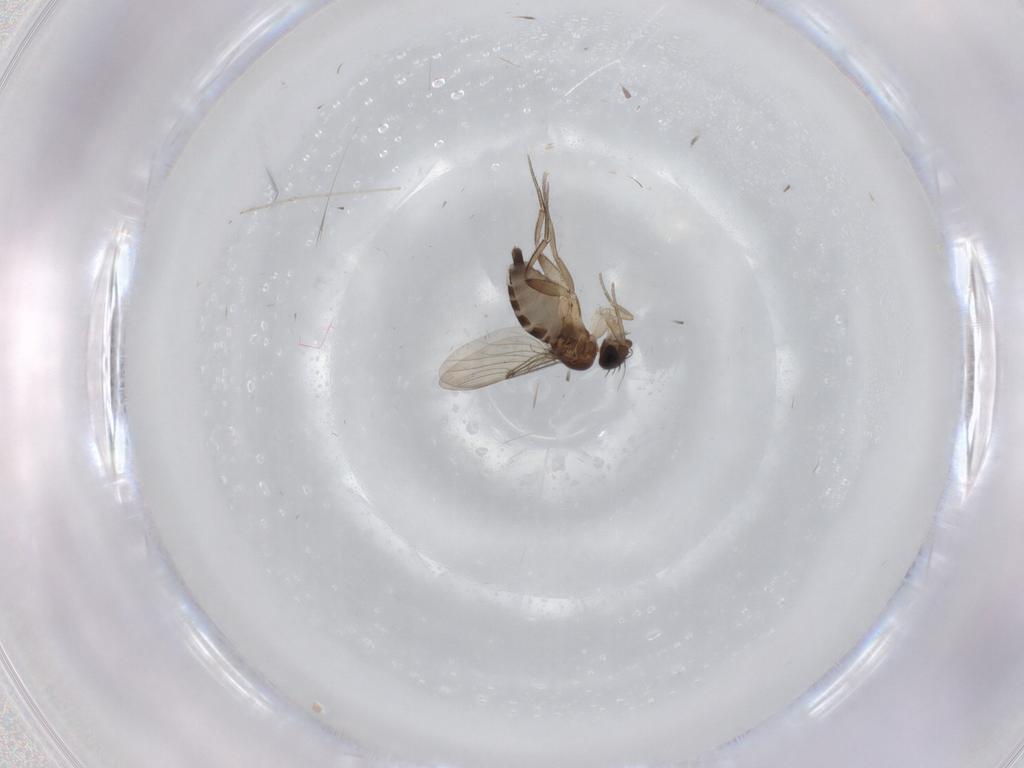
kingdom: Animalia
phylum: Arthropoda
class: Insecta
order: Diptera
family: Phoridae
